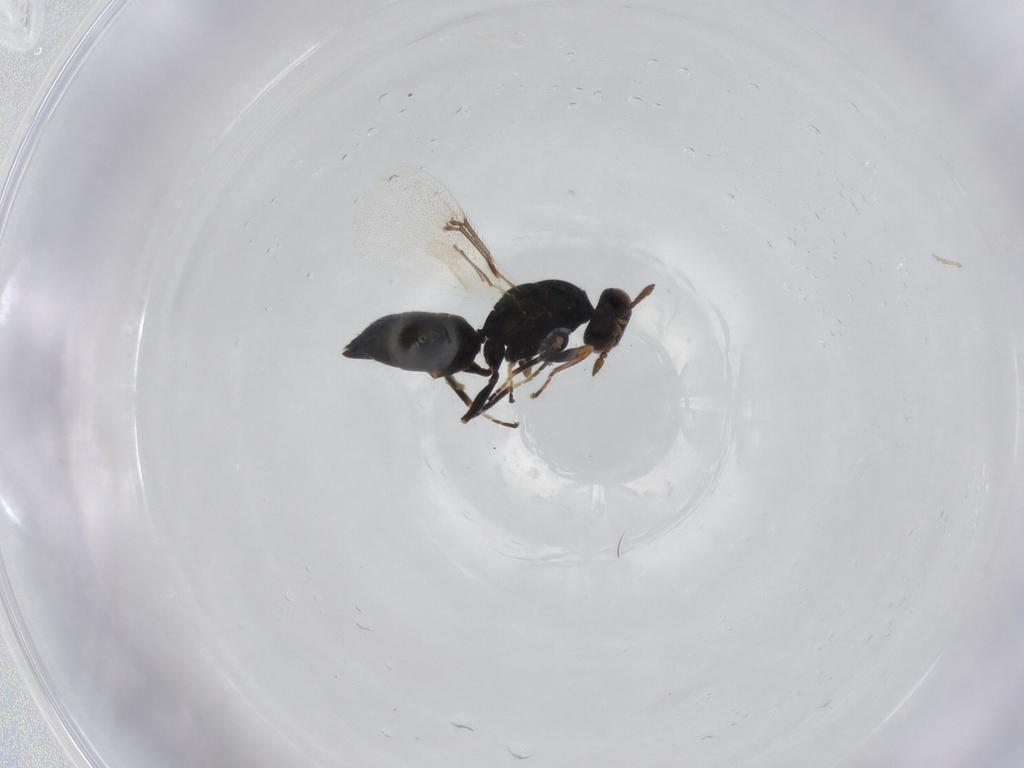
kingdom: Animalia
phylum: Arthropoda
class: Insecta
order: Hymenoptera
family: Eulophidae
